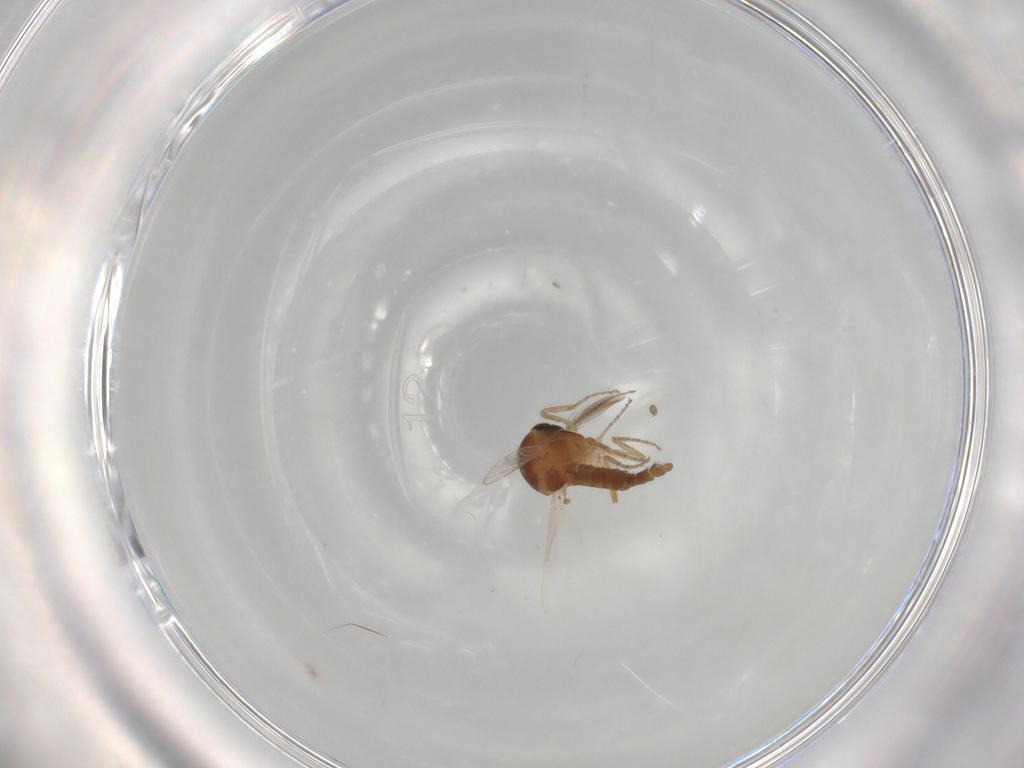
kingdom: Animalia
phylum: Arthropoda
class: Insecta
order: Diptera
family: Ceratopogonidae
